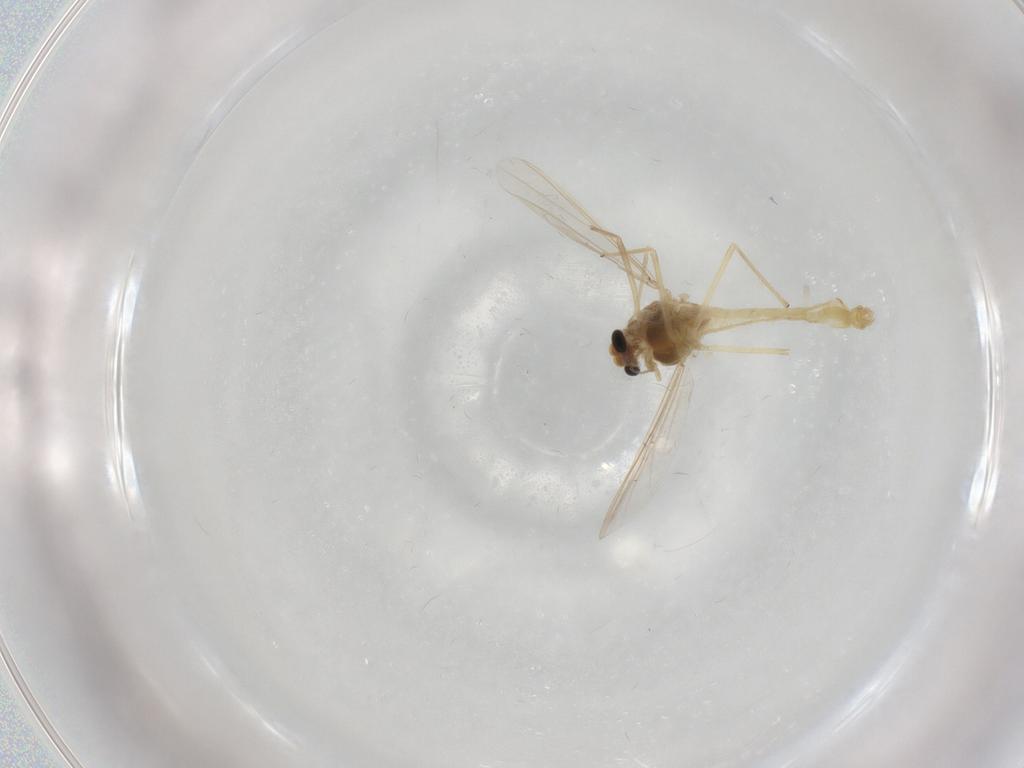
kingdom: Animalia
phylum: Arthropoda
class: Insecta
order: Diptera
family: Chironomidae
